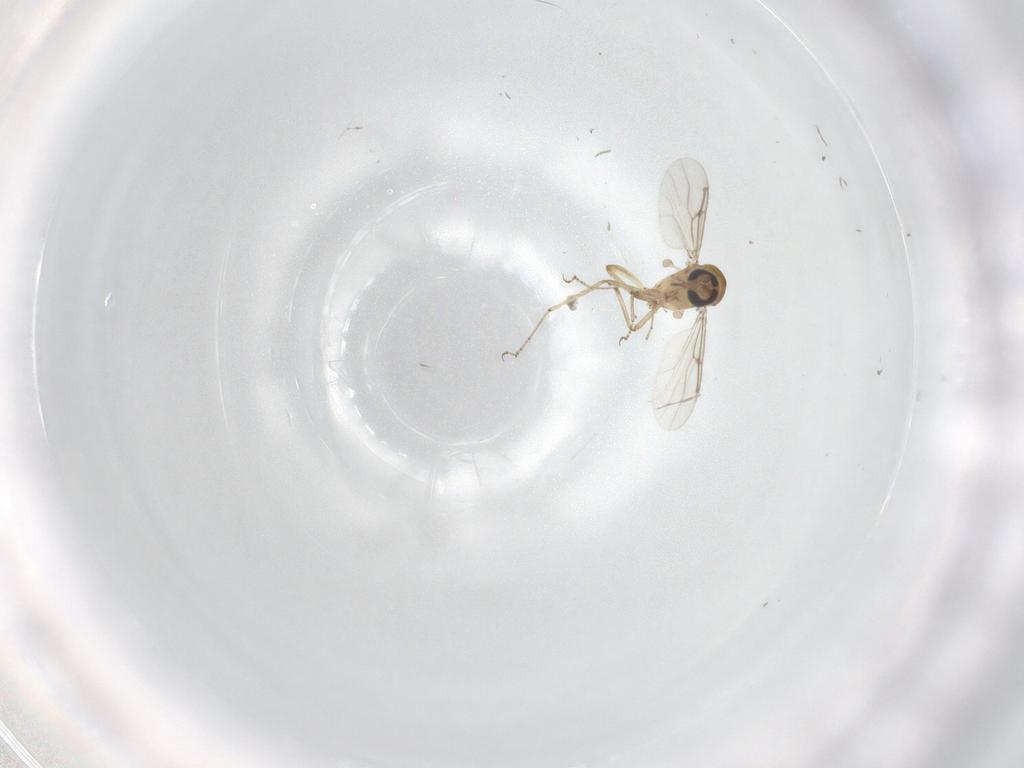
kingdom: Animalia
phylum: Arthropoda
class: Insecta
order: Diptera
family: Ceratopogonidae
